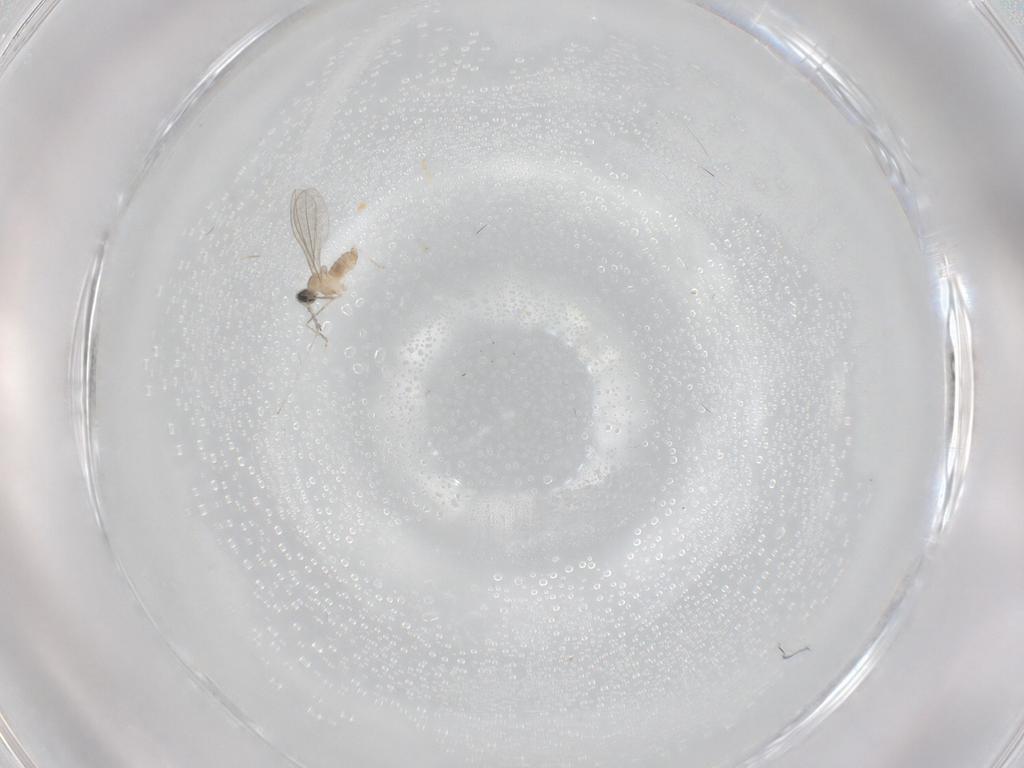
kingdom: Animalia
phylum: Arthropoda
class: Insecta
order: Diptera
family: Cecidomyiidae
